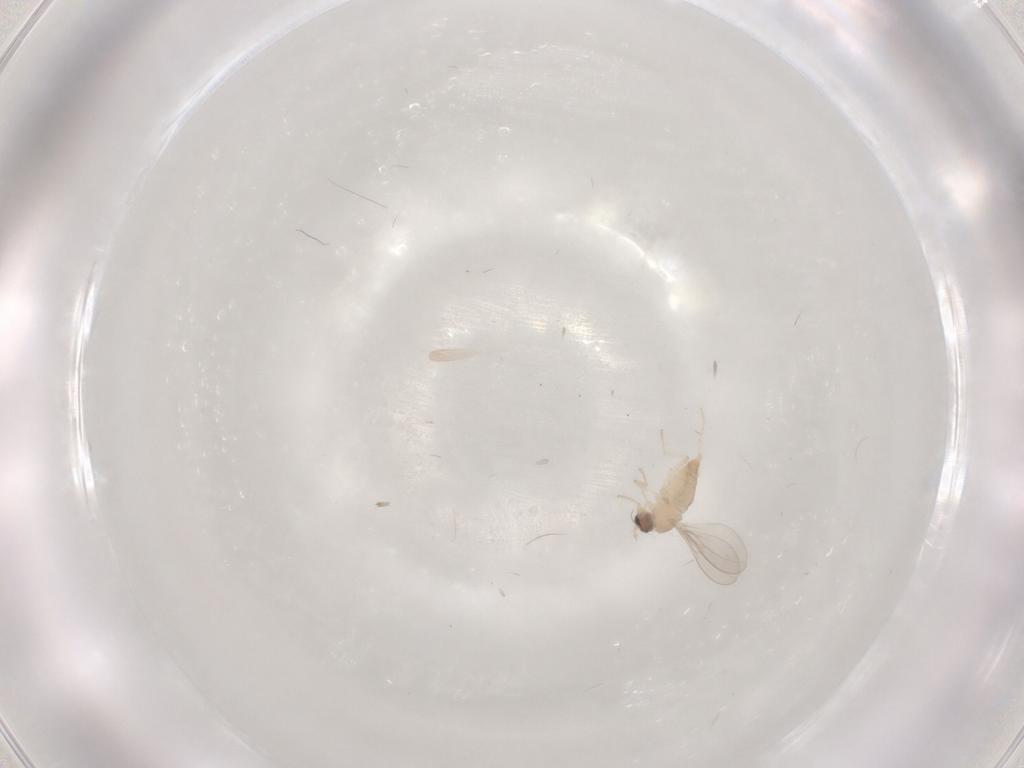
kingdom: Animalia
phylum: Arthropoda
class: Insecta
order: Diptera
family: Cecidomyiidae
